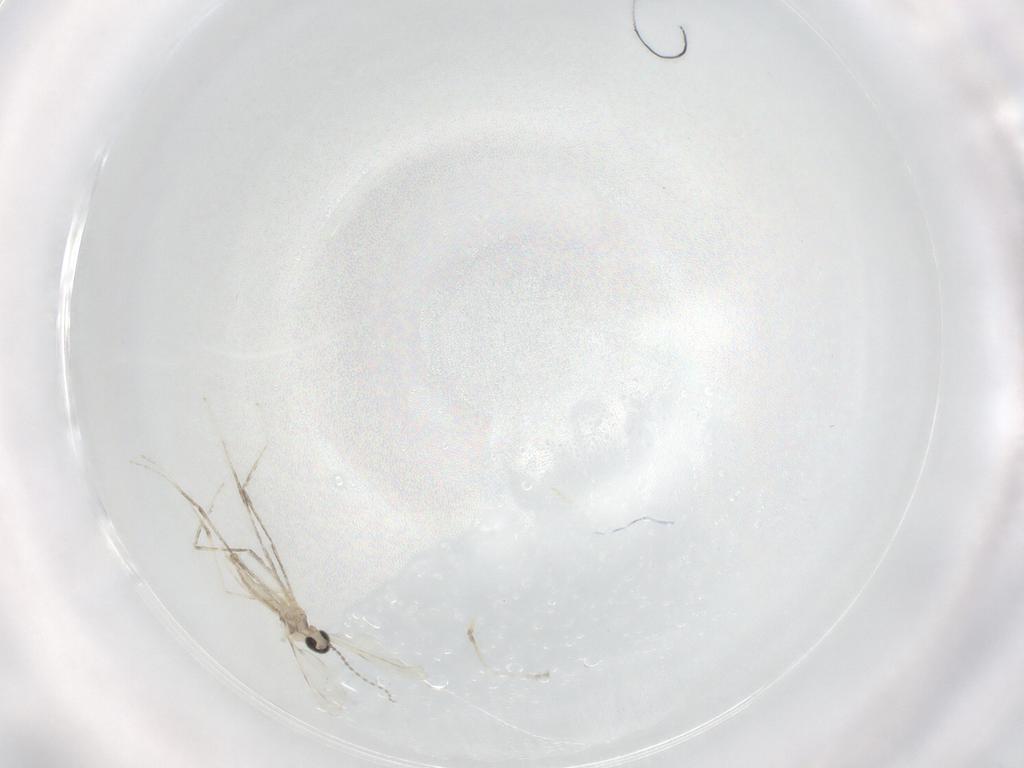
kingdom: Animalia
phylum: Arthropoda
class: Insecta
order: Diptera
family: Cecidomyiidae
